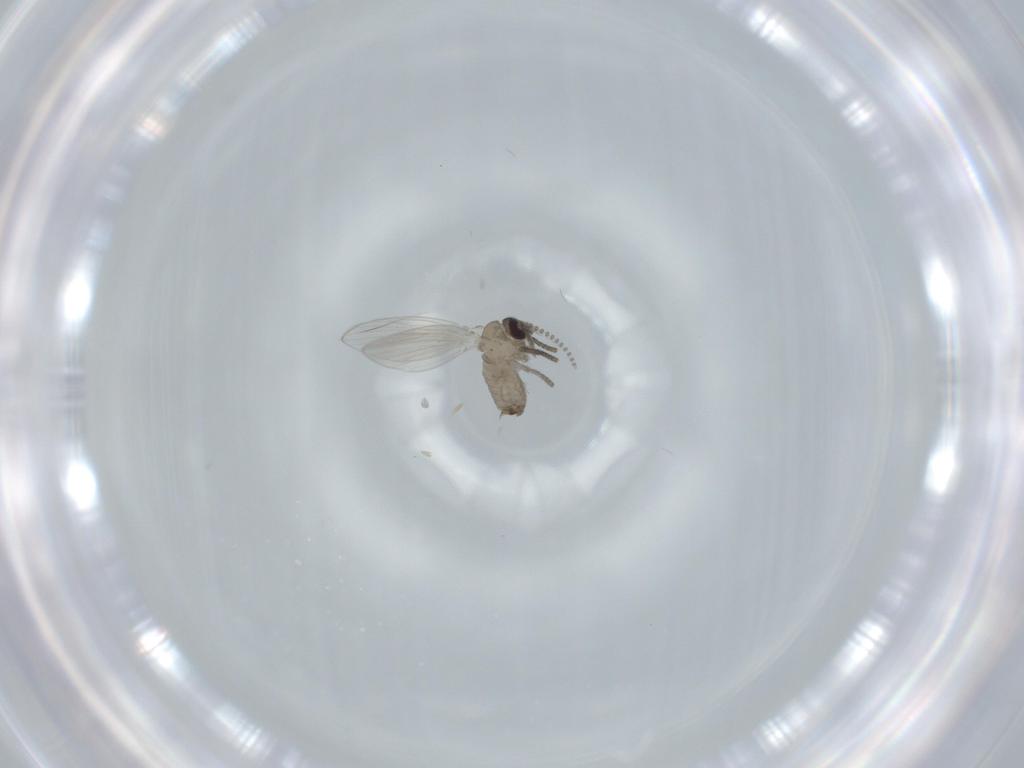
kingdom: Animalia
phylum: Arthropoda
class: Insecta
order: Diptera
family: Psychodidae
